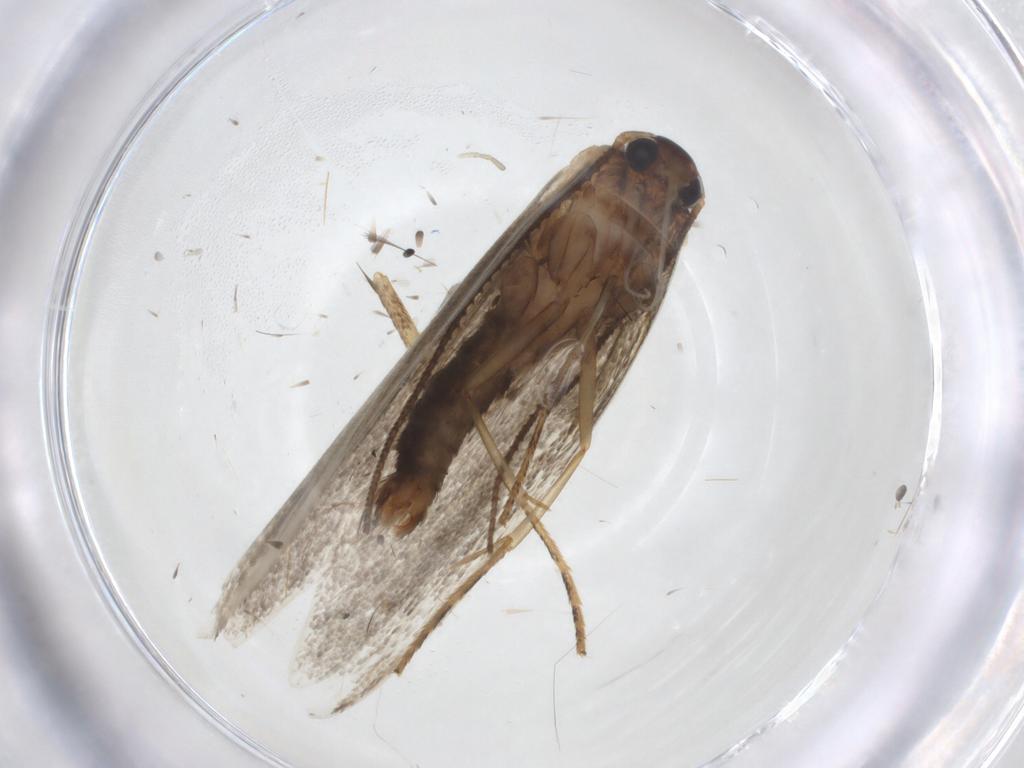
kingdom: Animalia
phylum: Arthropoda
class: Insecta
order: Lepidoptera
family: Erebidae
